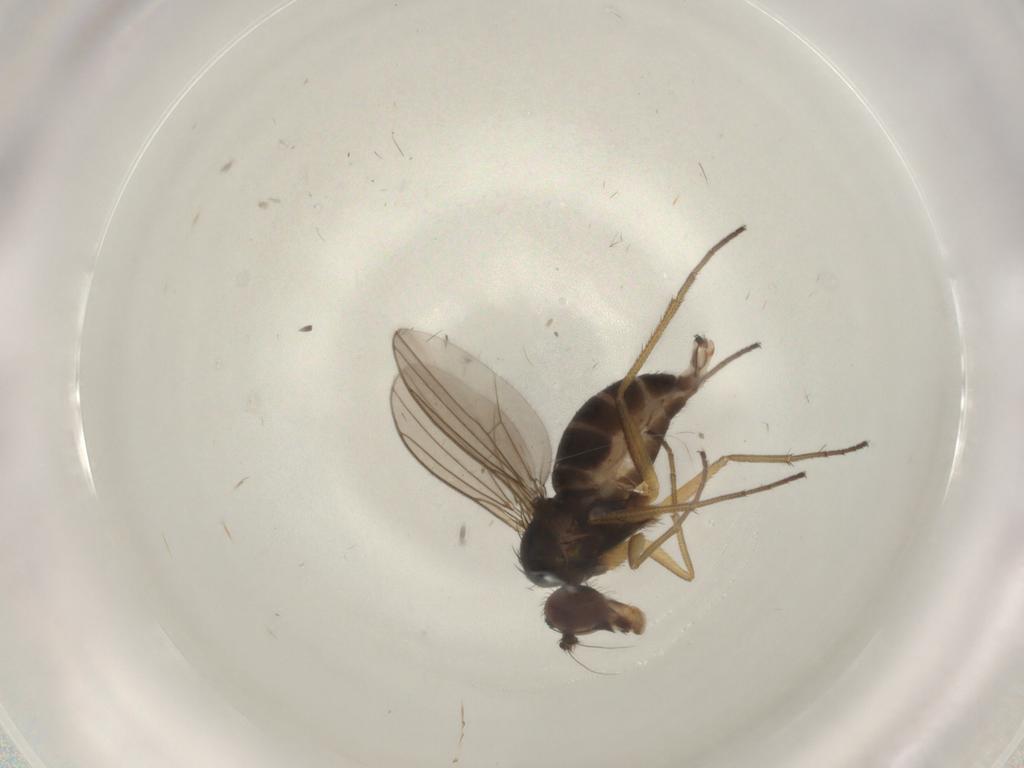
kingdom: Animalia
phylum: Arthropoda
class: Insecta
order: Diptera
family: Dolichopodidae
